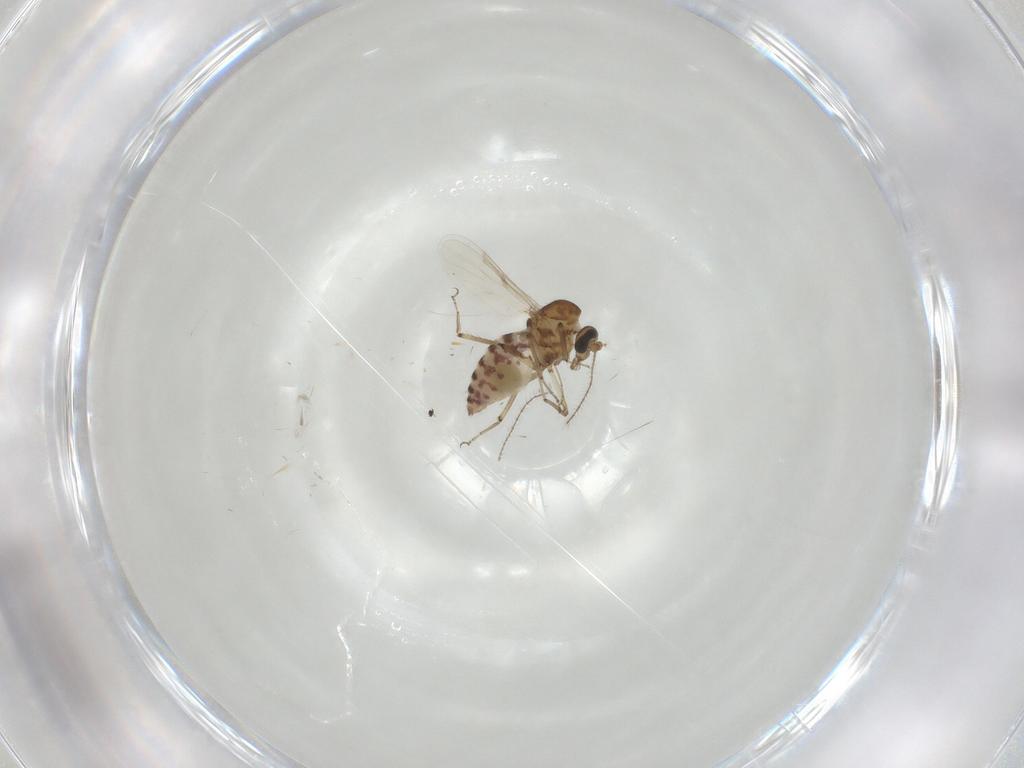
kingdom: Animalia
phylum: Arthropoda
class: Insecta
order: Diptera
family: Ceratopogonidae
